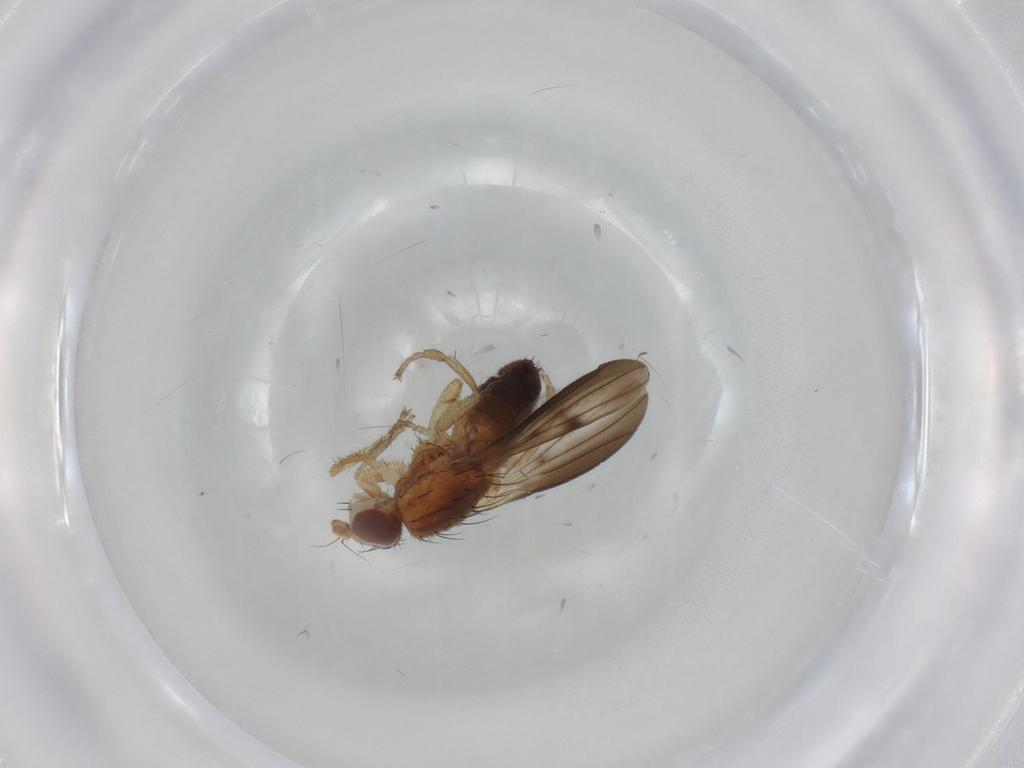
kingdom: Animalia
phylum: Arthropoda
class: Insecta
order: Diptera
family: Heleomyzidae
